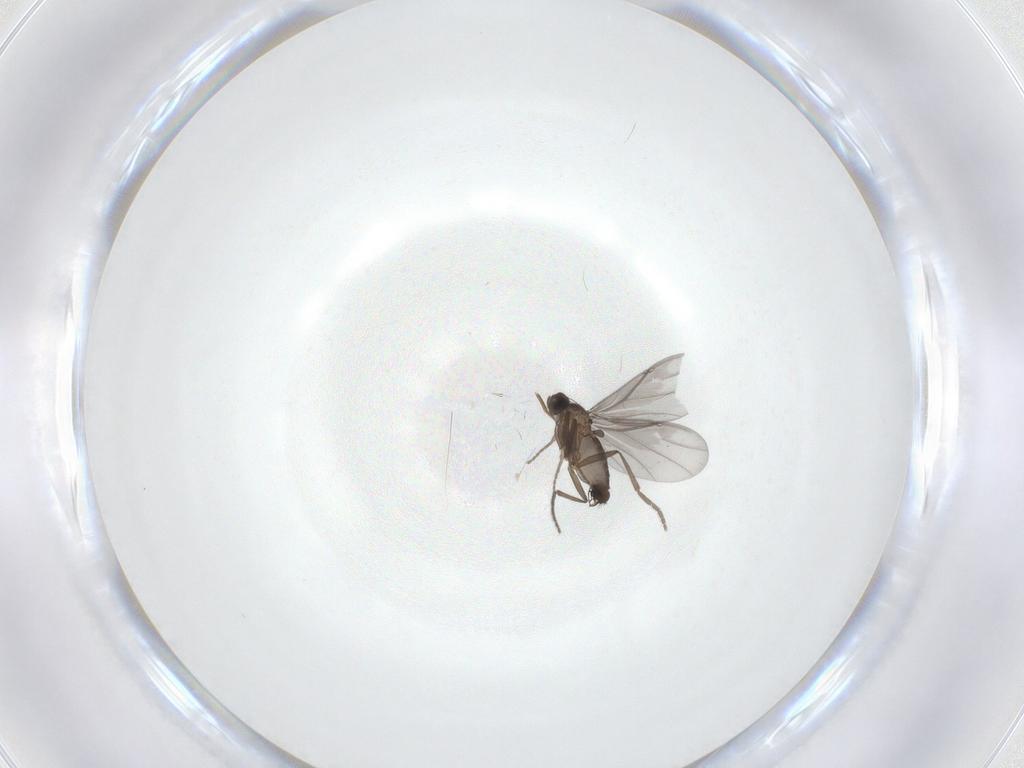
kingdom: Animalia
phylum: Arthropoda
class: Insecta
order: Diptera
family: Phoridae
